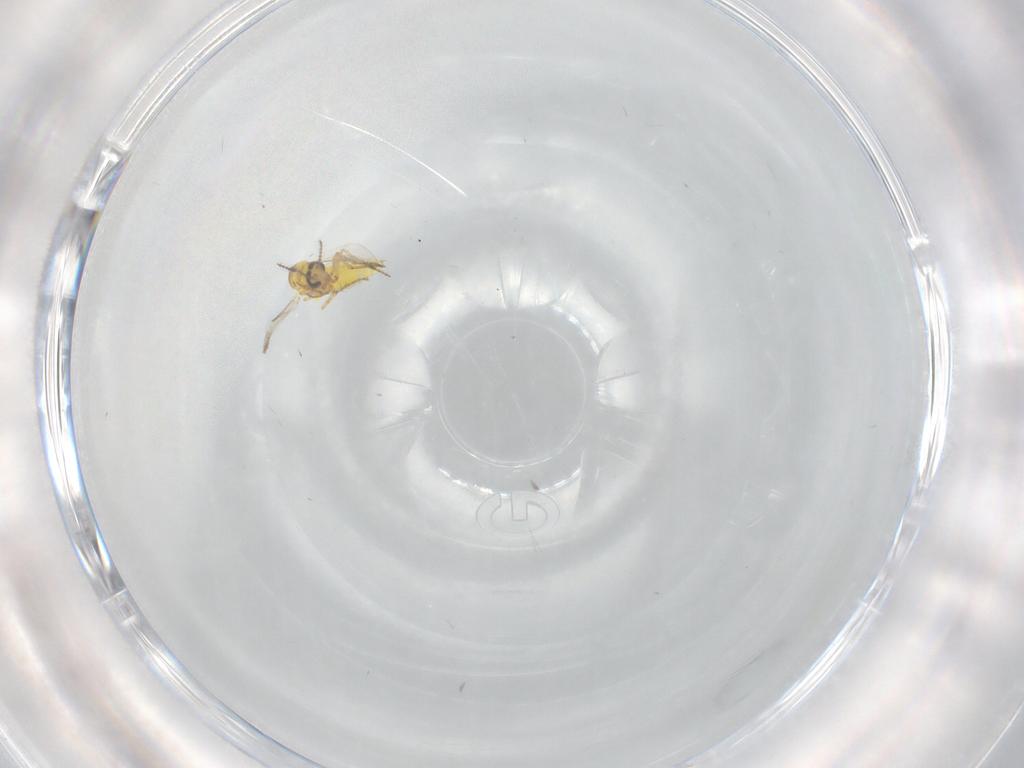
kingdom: Animalia
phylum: Arthropoda
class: Insecta
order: Diptera
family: Ceratopogonidae
